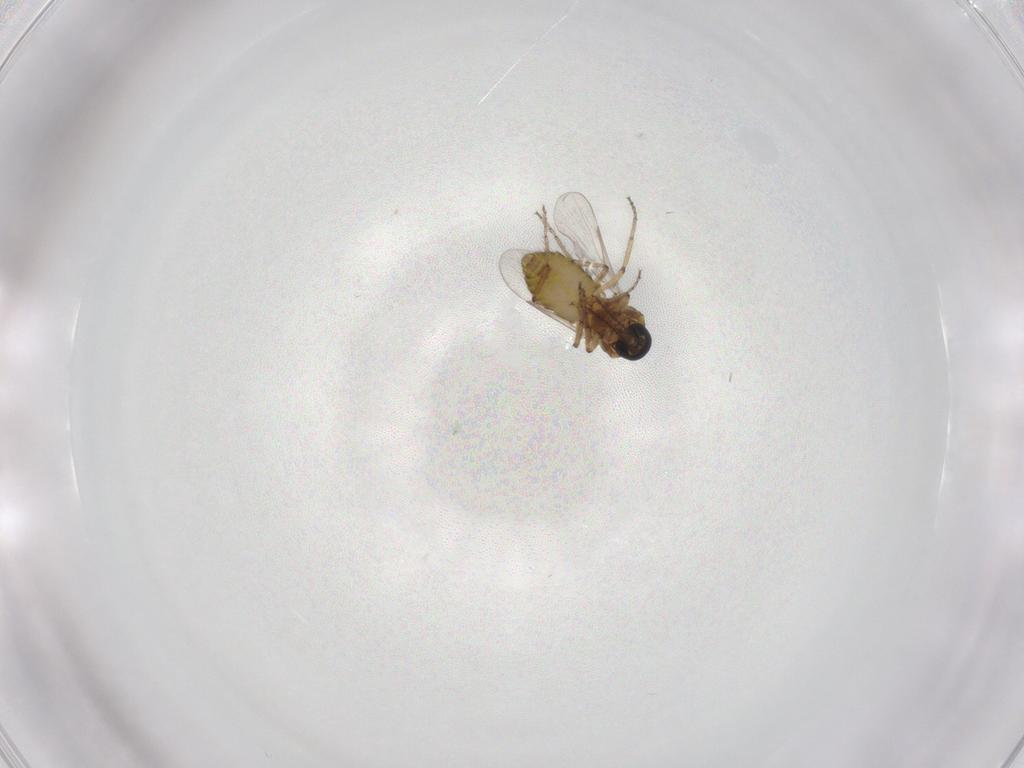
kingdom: Animalia
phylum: Arthropoda
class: Insecta
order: Diptera
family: Ceratopogonidae
